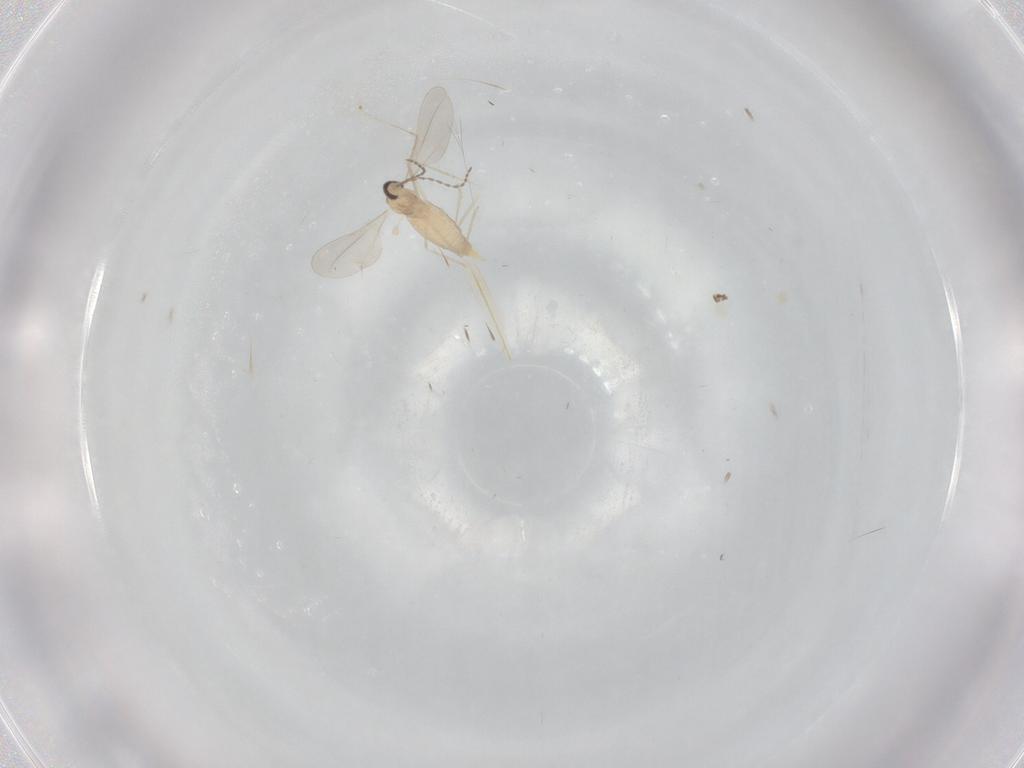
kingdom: Animalia
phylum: Arthropoda
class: Insecta
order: Diptera
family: Cecidomyiidae
